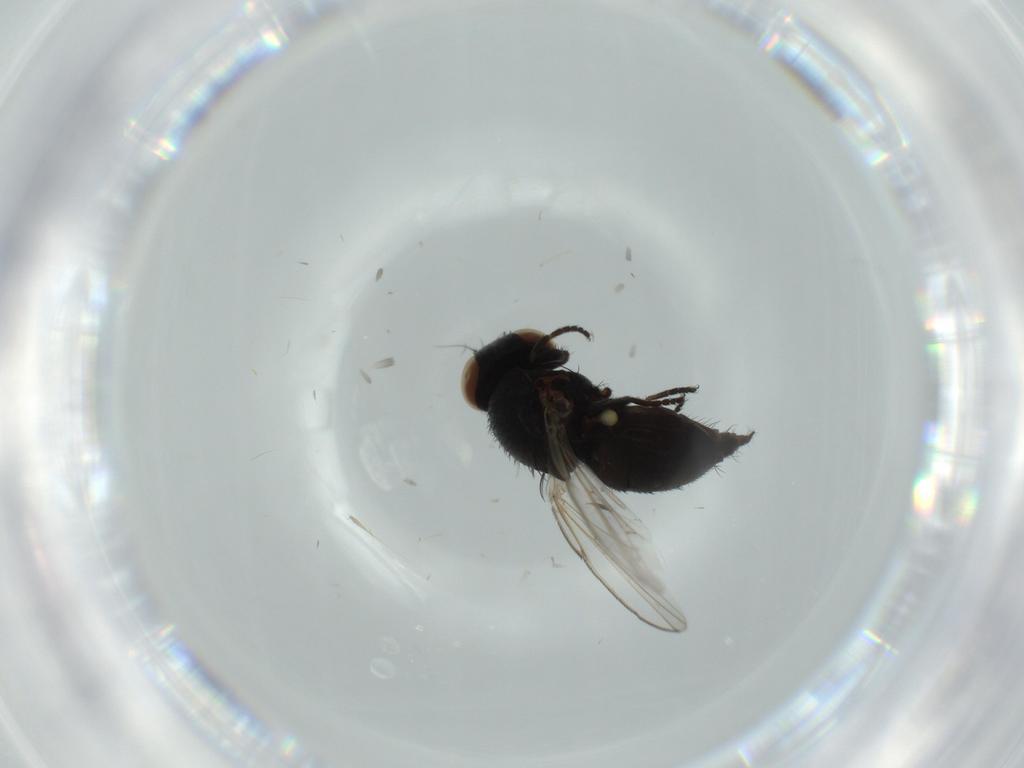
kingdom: Animalia
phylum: Arthropoda
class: Insecta
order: Diptera
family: Chloropidae
